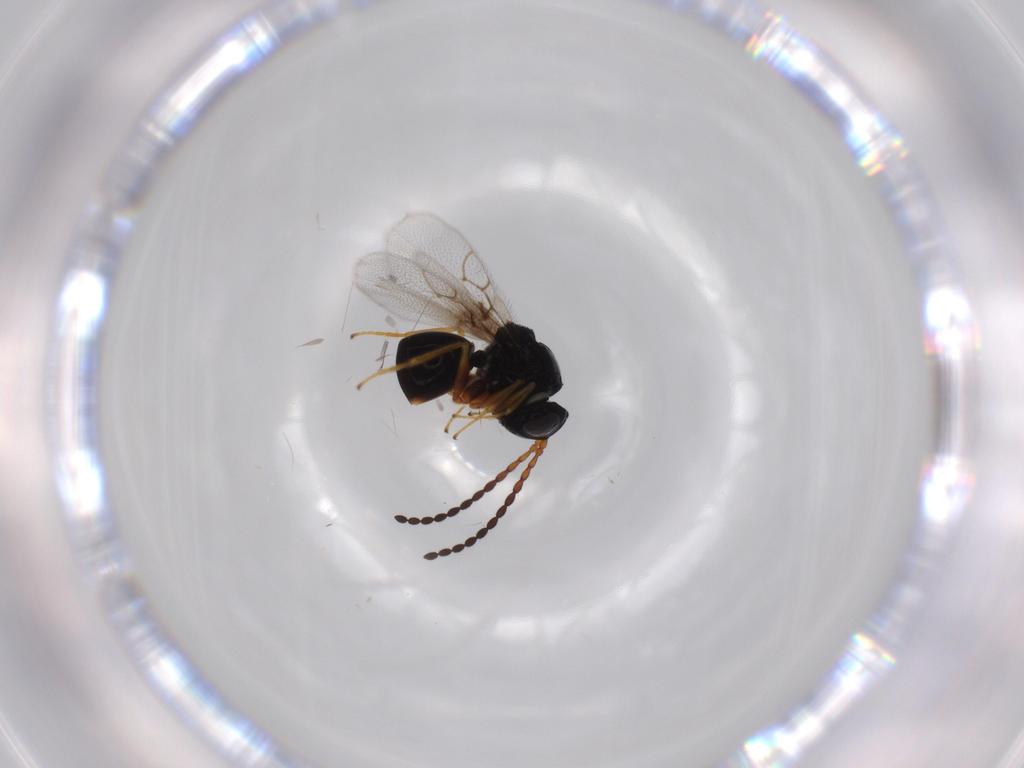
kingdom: Animalia
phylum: Arthropoda
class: Insecta
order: Hymenoptera
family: Figitidae
